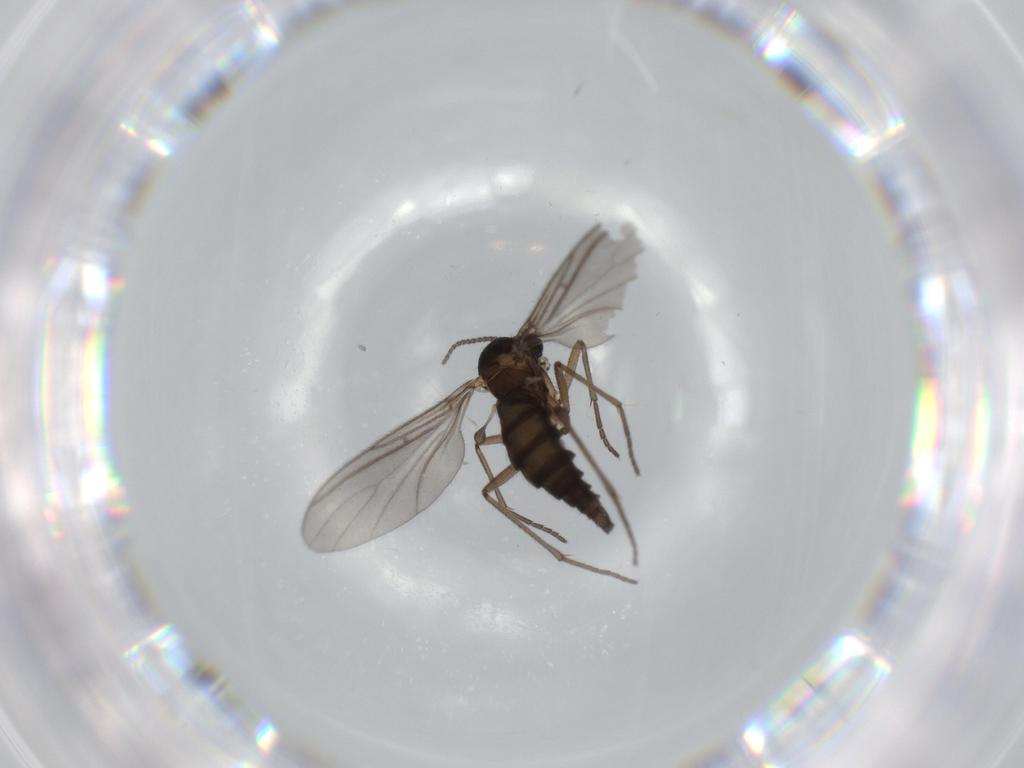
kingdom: Animalia
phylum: Arthropoda
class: Insecta
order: Diptera
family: Sciaridae
